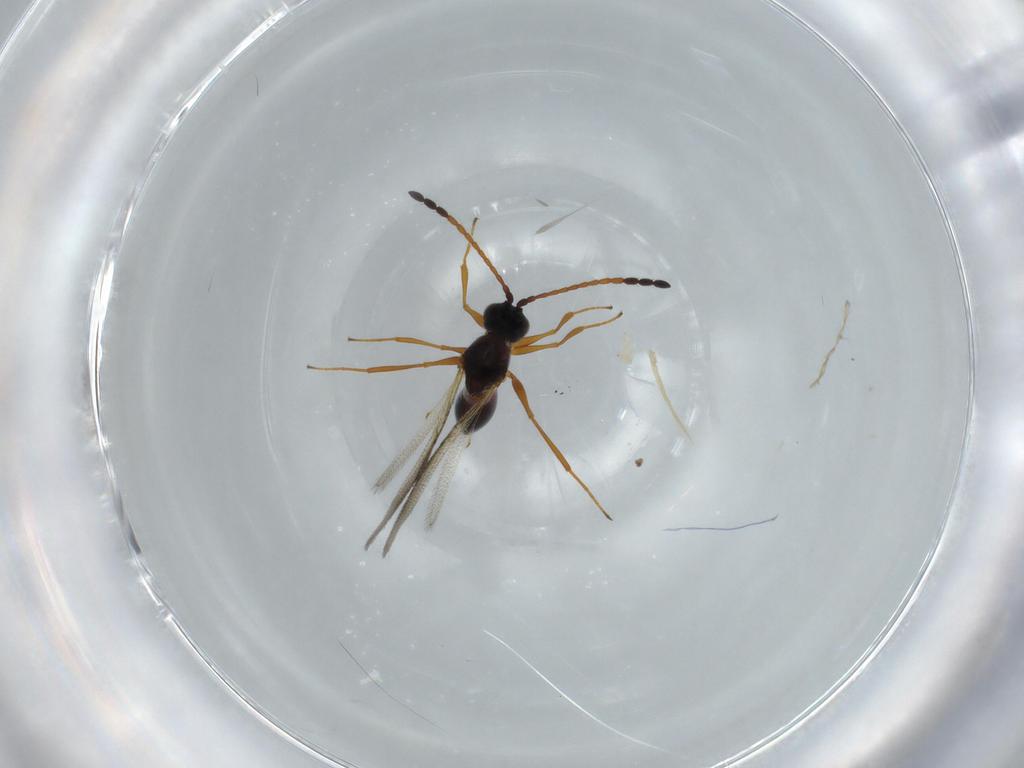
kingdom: Animalia
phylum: Arthropoda
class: Insecta
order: Hymenoptera
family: Figitidae
